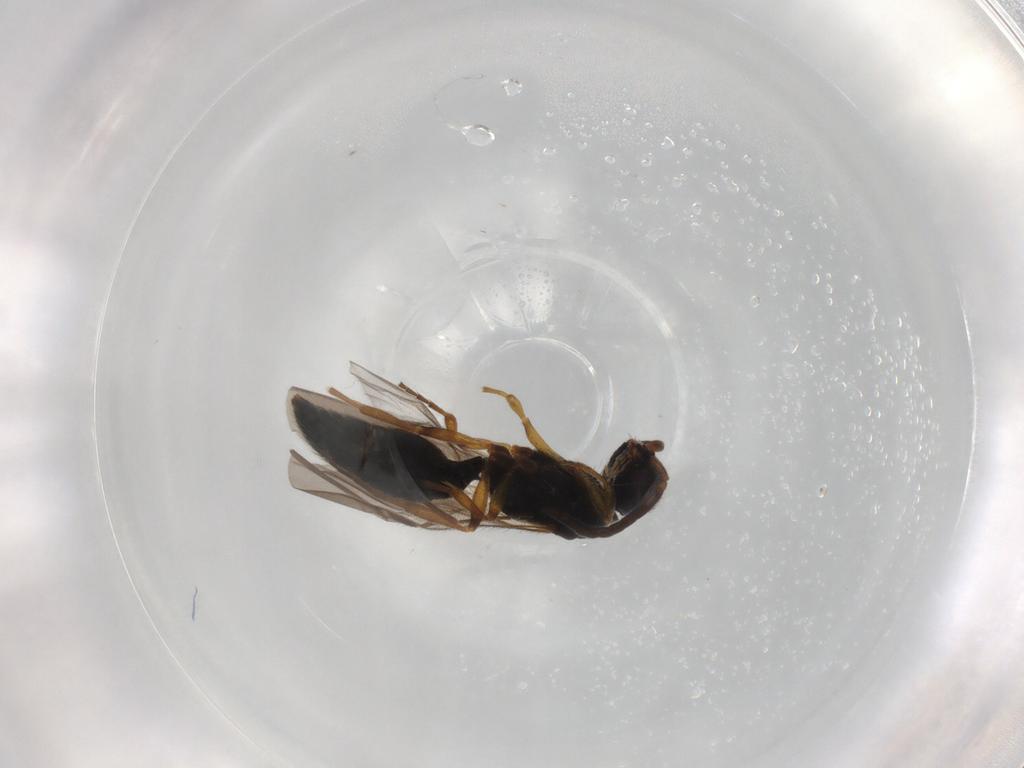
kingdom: Animalia
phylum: Arthropoda
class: Insecta
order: Hymenoptera
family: Mutillidae
